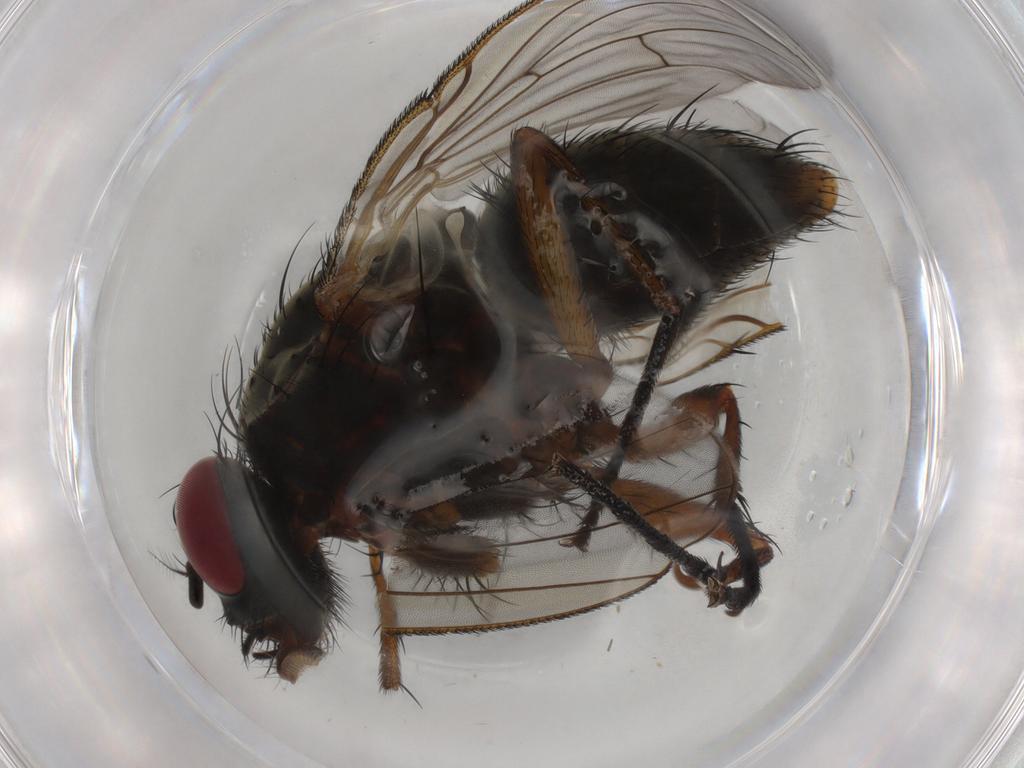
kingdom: Animalia
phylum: Arthropoda
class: Insecta
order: Diptera
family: Muscidae
